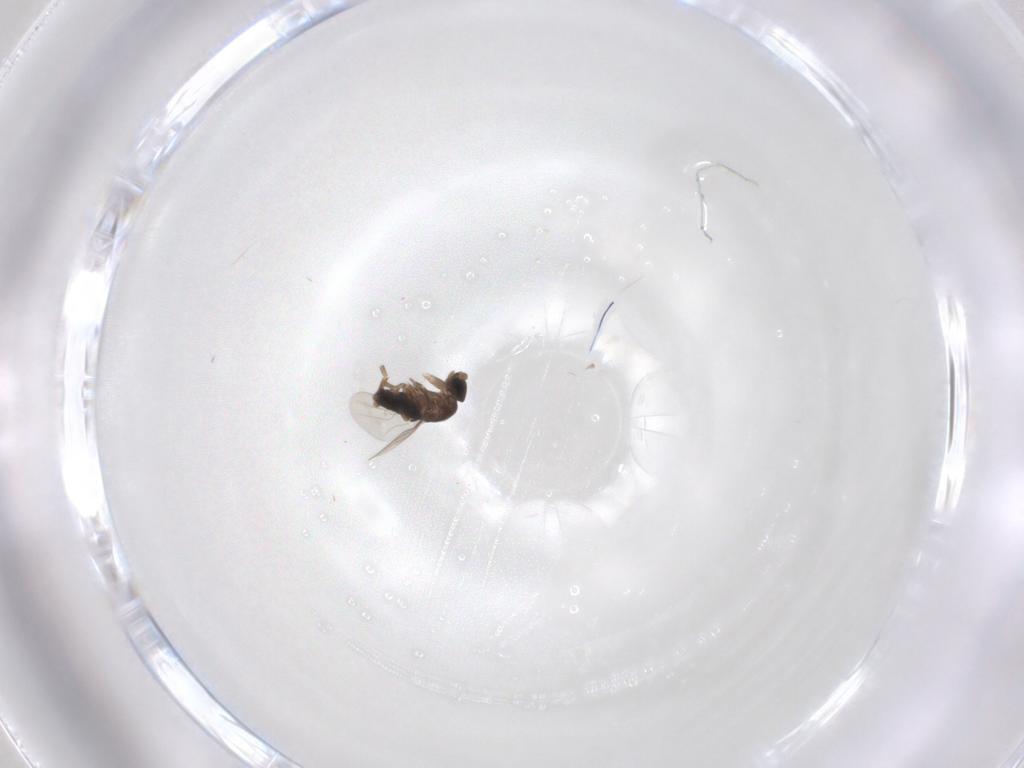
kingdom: Animalia
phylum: Arthropoda
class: Insecta
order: Diptera
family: Phoridae
